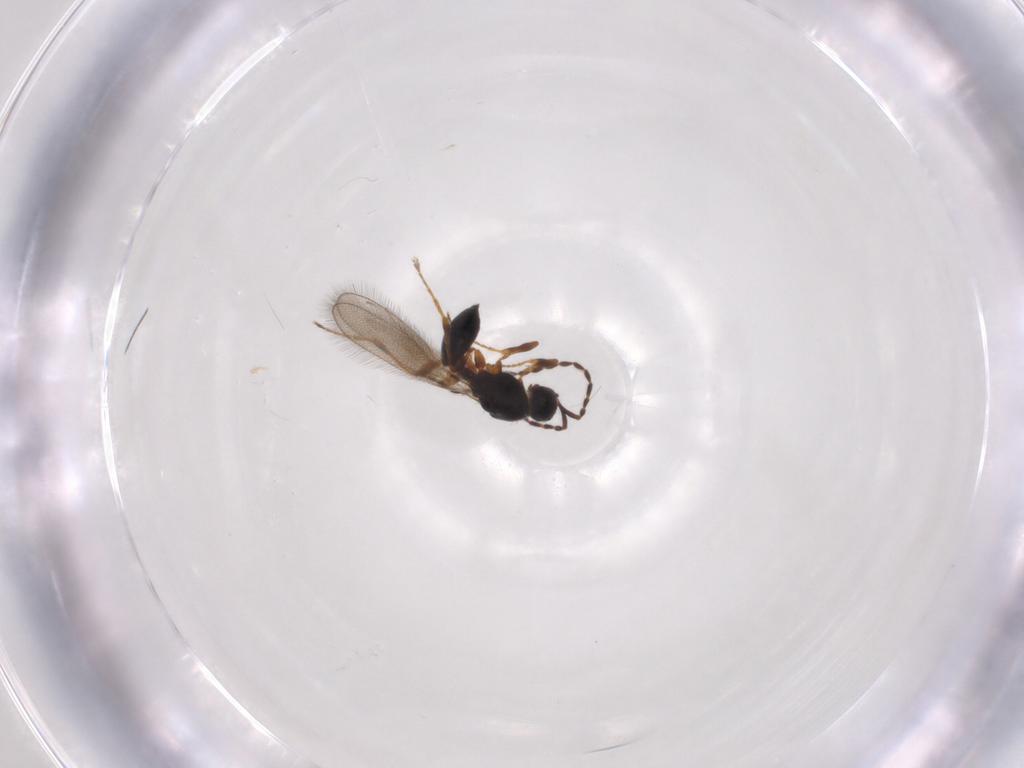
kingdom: Animalia
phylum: Arthropoda
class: Insecta
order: Hymenoptera
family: Diapriidae
